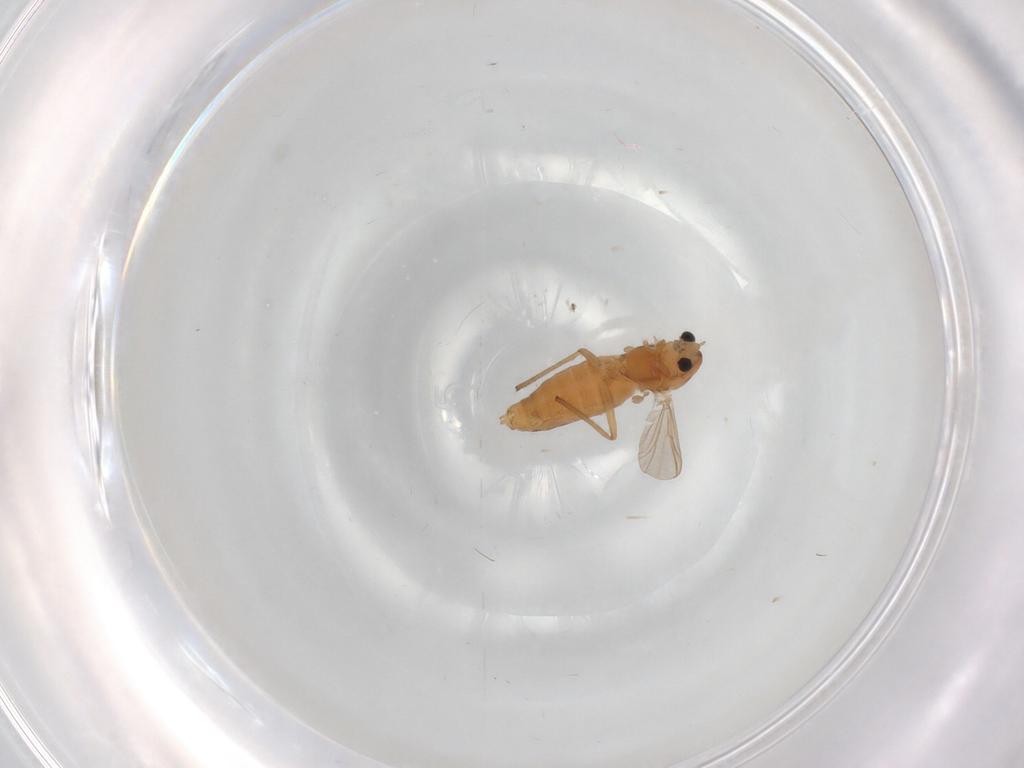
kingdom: Animalia
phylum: Arthropoda
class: Insecta
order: Diptera
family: Chironomidae
